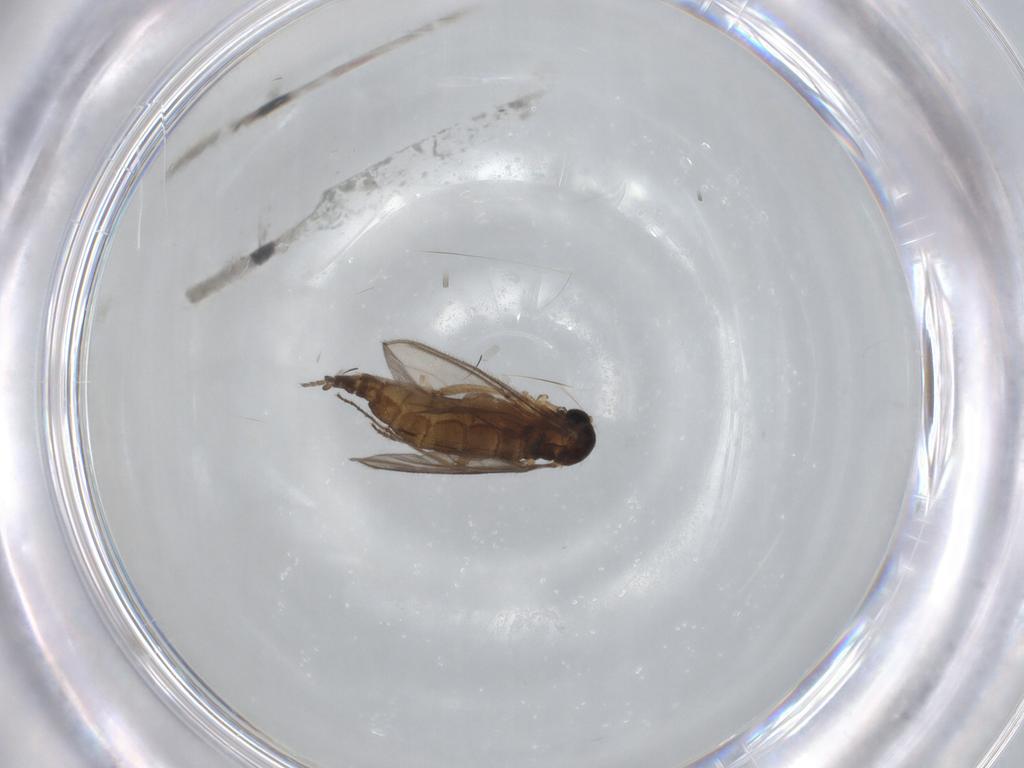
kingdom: Animalia
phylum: Arthropoda
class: Insecta
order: Diptera
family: Sciaridae
